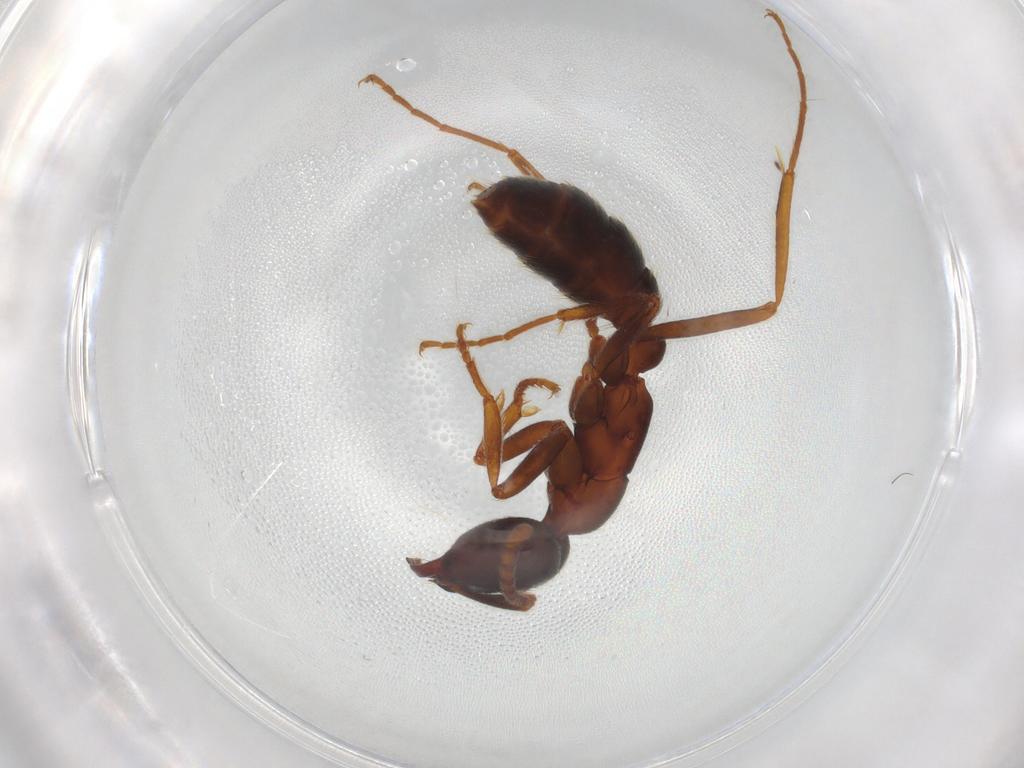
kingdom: Animalia
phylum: Arthropoda
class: Insecta
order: Hymenoptera
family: Formicidae
